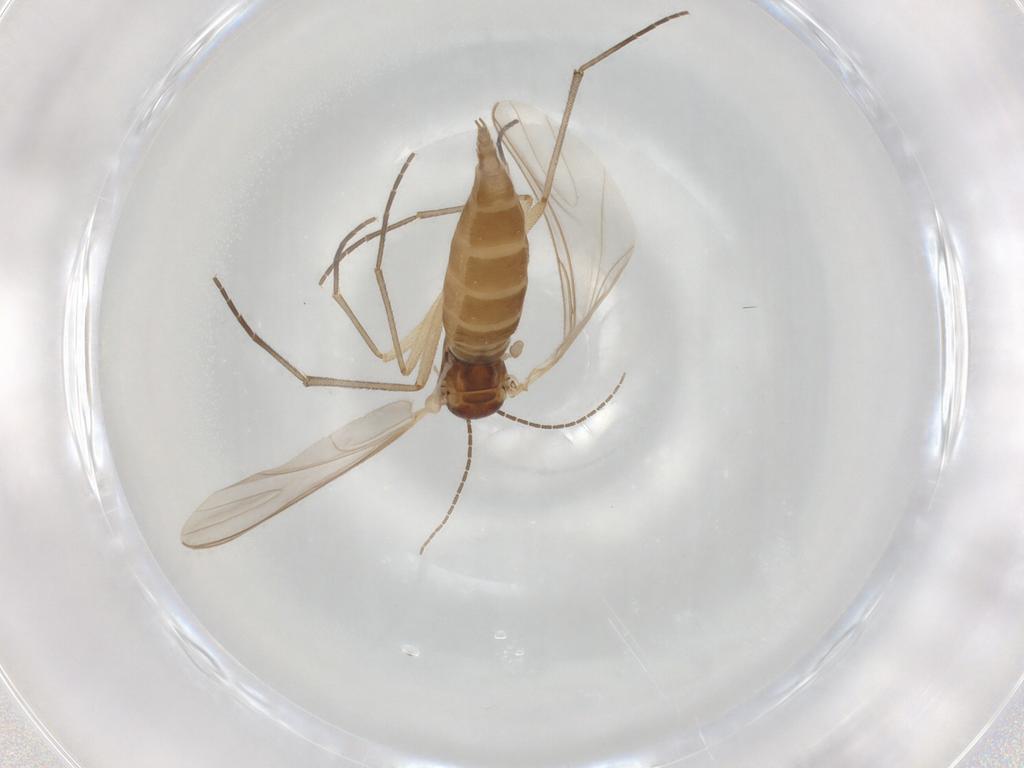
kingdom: Animalia
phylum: Arthropoda
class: Insecta
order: Diptera
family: Sciaridae
